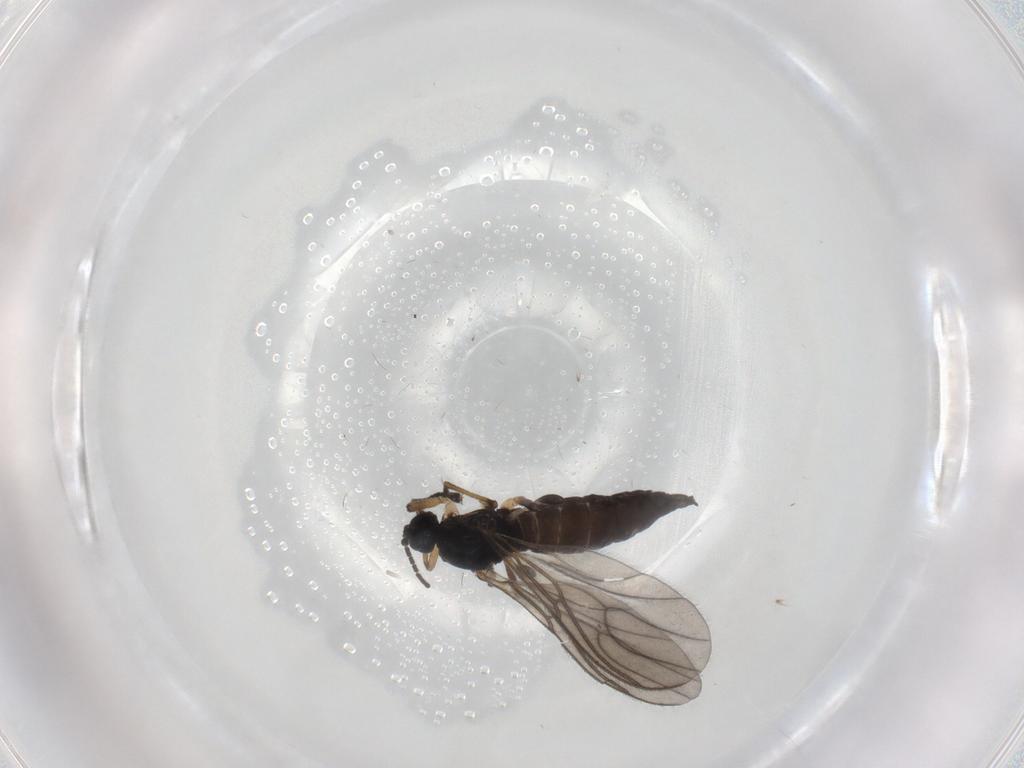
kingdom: Animalia
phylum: Arthropoda
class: Insecta
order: Diptera
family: Sciaridae
